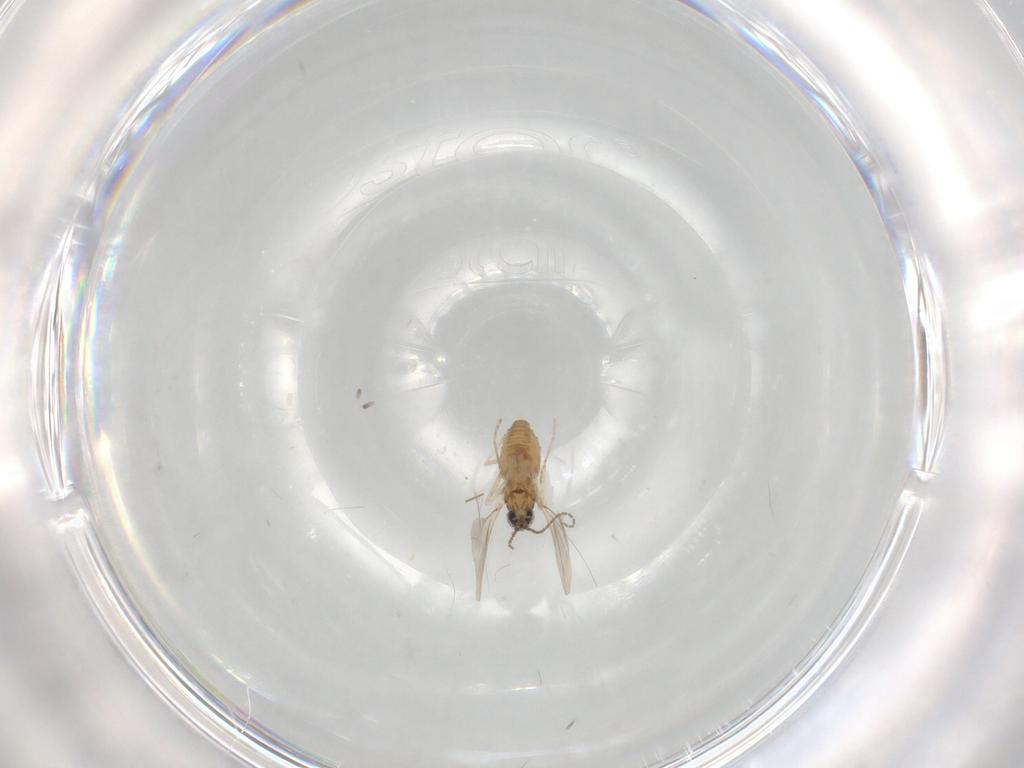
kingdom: Animalia
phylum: Arthropoda
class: Insecta
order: Diptera
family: Cecidomyiidae
